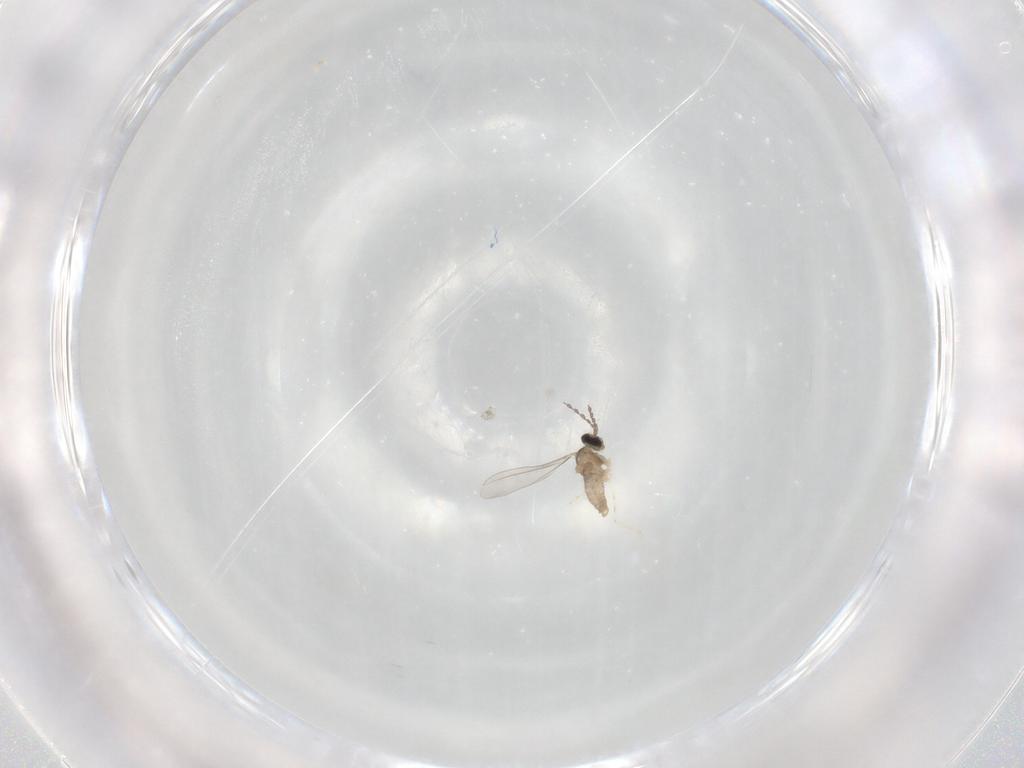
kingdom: Animalia
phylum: Arthropoda
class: Insecta
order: Diptera
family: Cecidomyiidae
